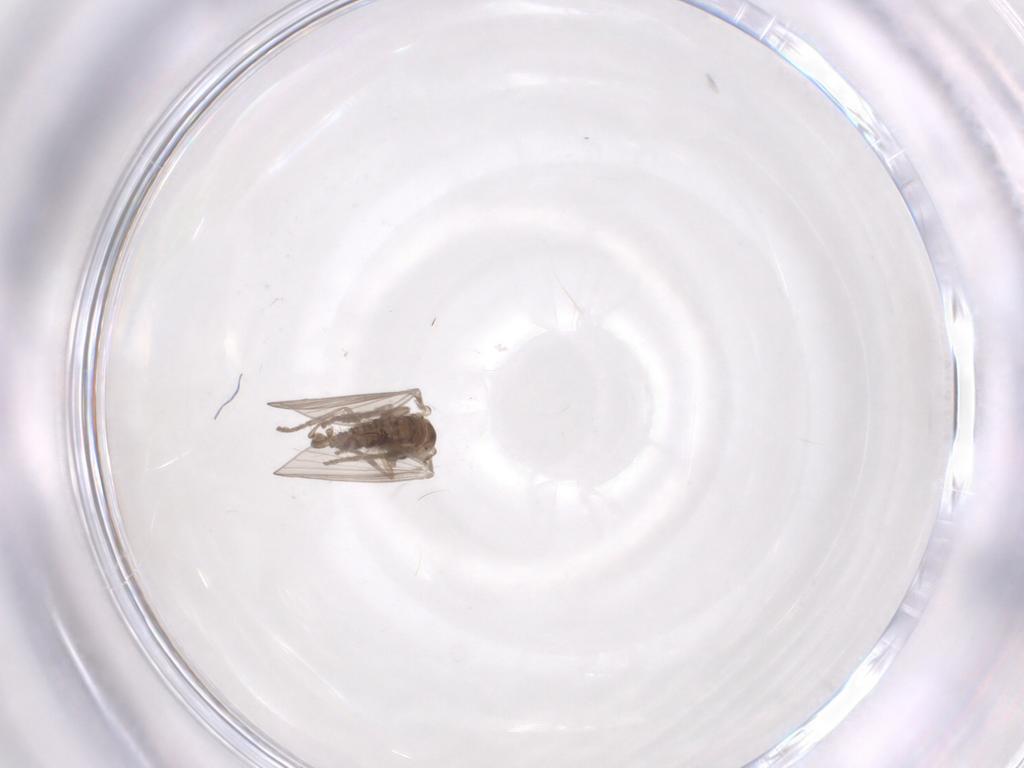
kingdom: Animalia
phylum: Arthropoda
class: Insecta
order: Diptera
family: Psychodidae
